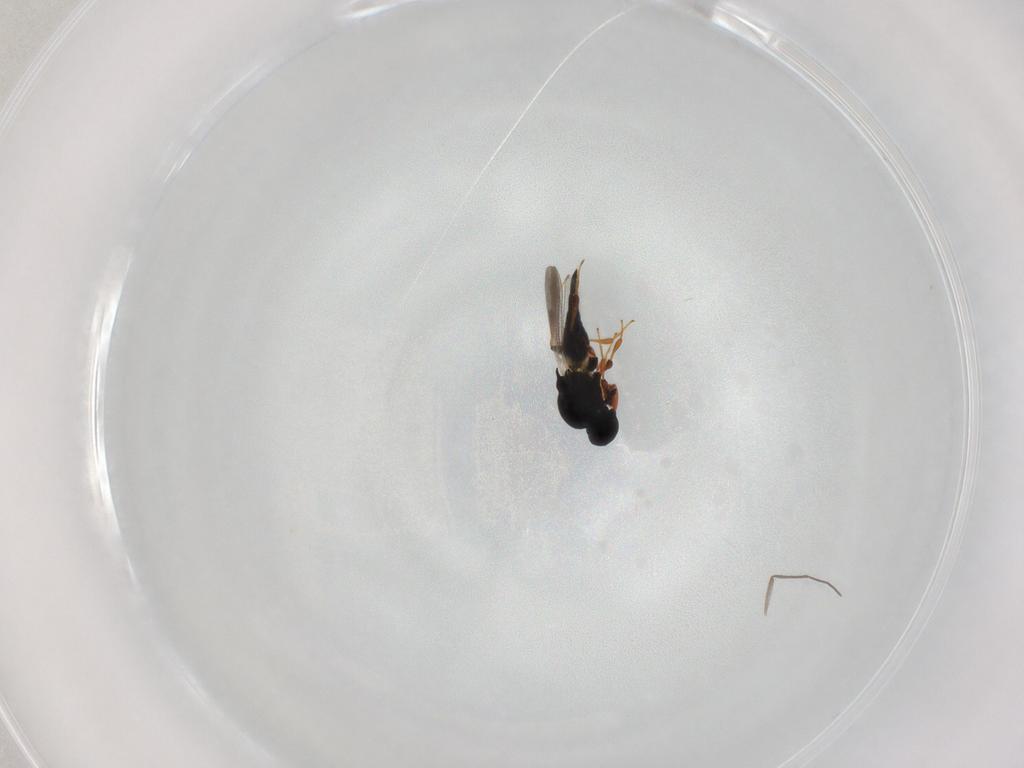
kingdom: Animalia
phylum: Arthropoda
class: Insecta
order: Hymenoptera
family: Platygastridae
